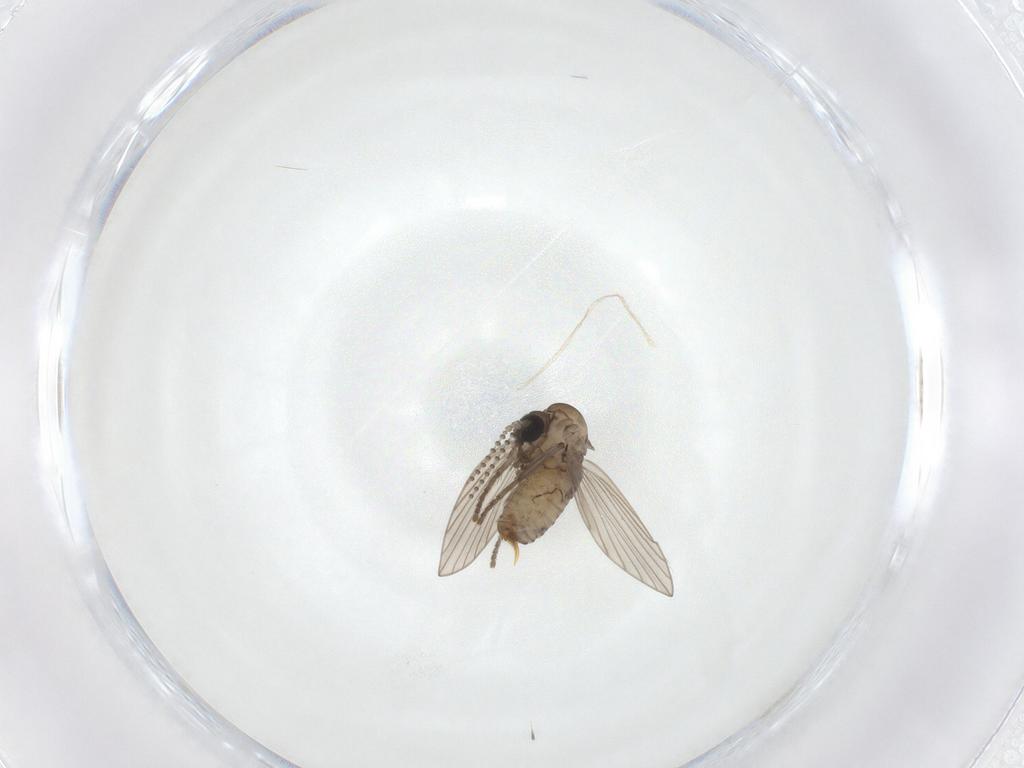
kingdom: Animalia
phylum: Arthropoda
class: Insecta
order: Diptera
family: Psychodidae
